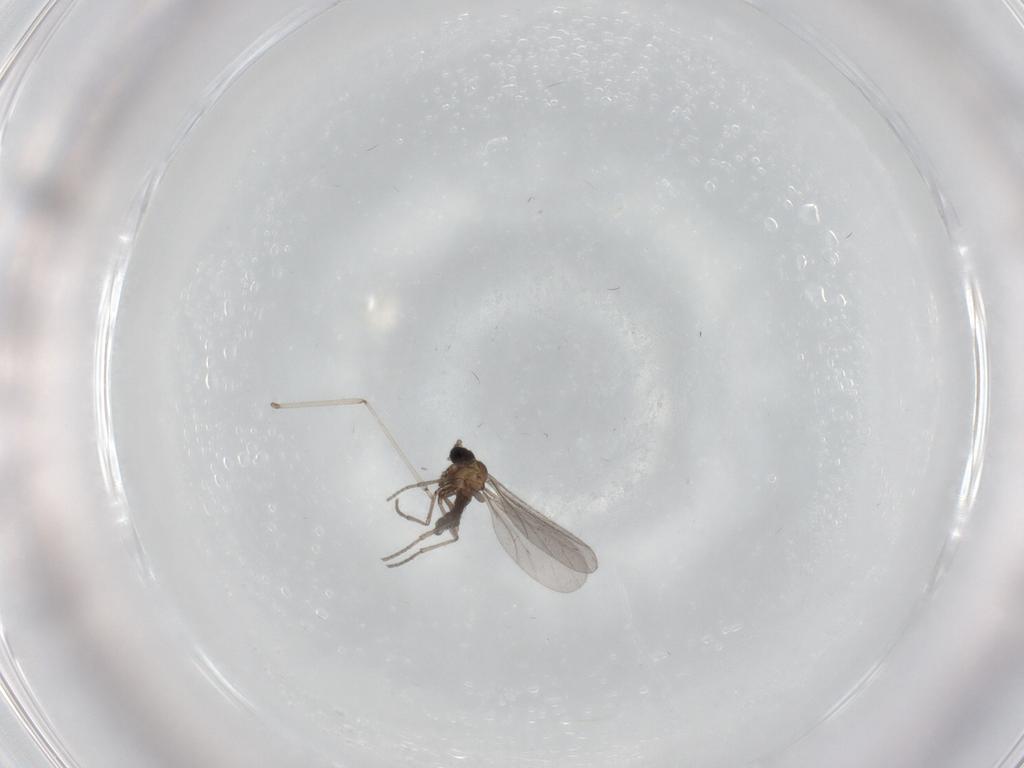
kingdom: Animalia
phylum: Arthropoda
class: Insecta
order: Diptera
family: Sciaridae
